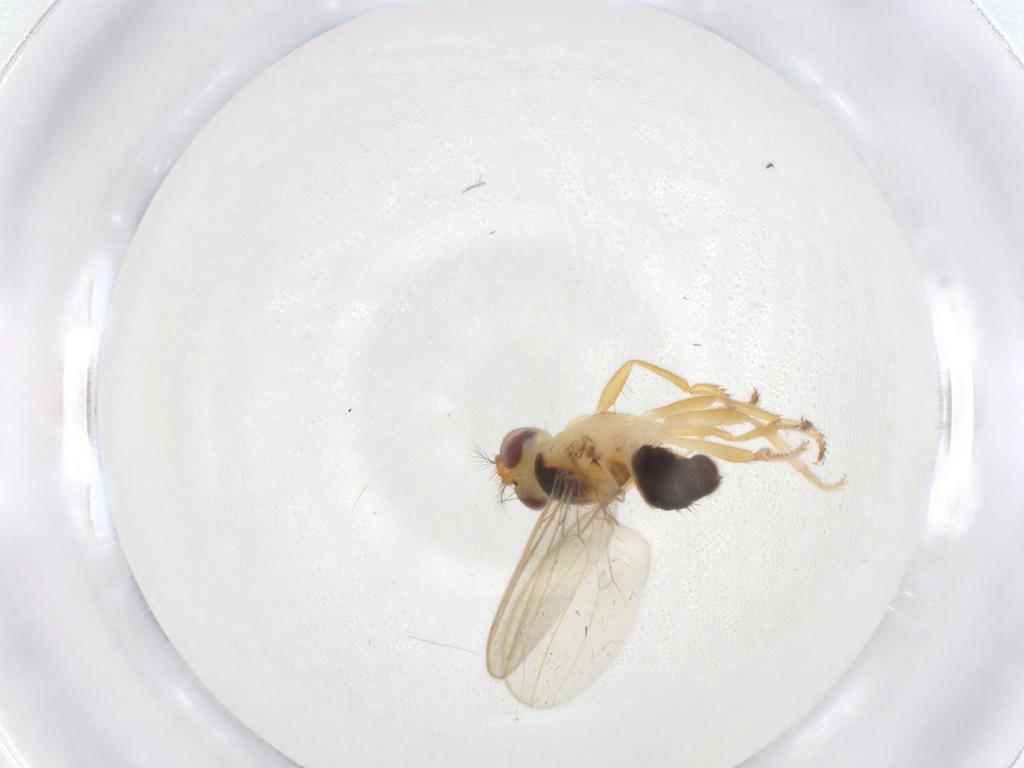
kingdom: Animalia
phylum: Arthropoda
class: Insecta
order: Diptera
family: Periscelididae
